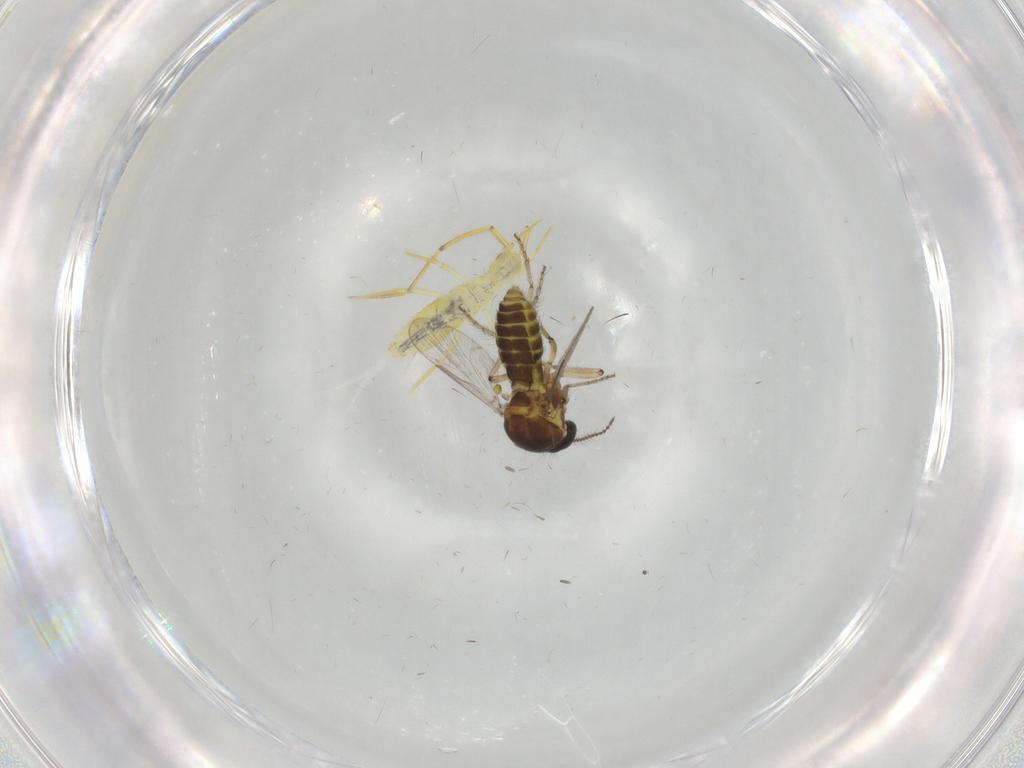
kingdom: Animalia
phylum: Arthropoda
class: Insecta
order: Diptera
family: Ceratopogonidae
